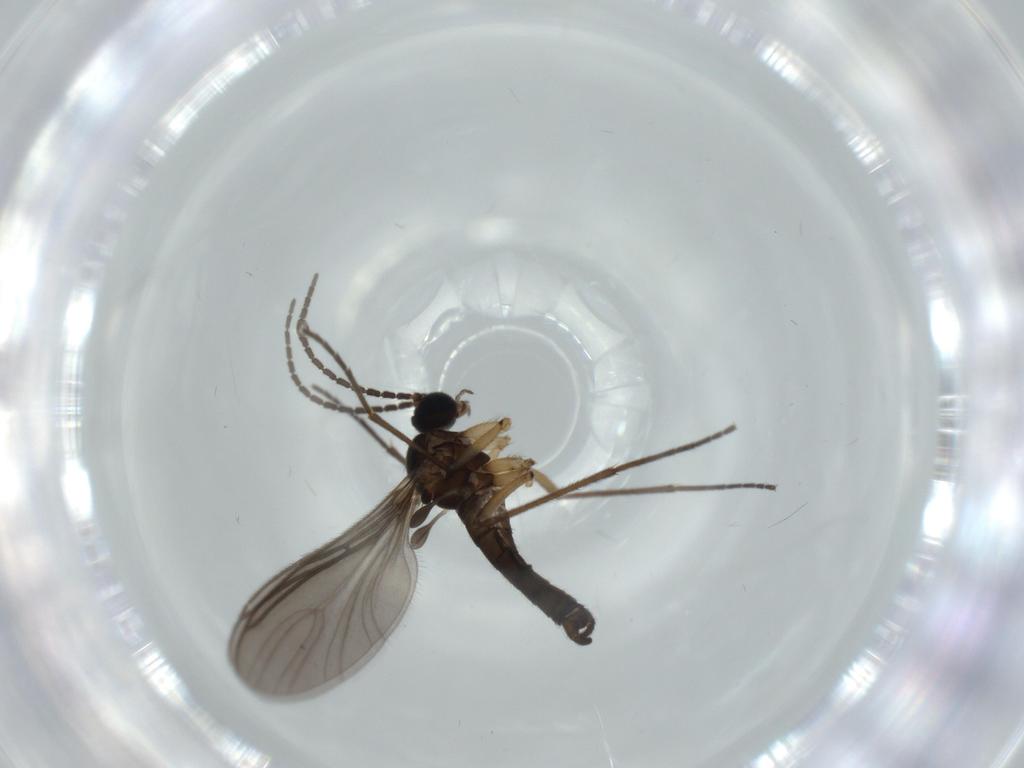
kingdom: Animalia
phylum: Arthropoda
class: Insecta
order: Diptera
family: Sciaridae
